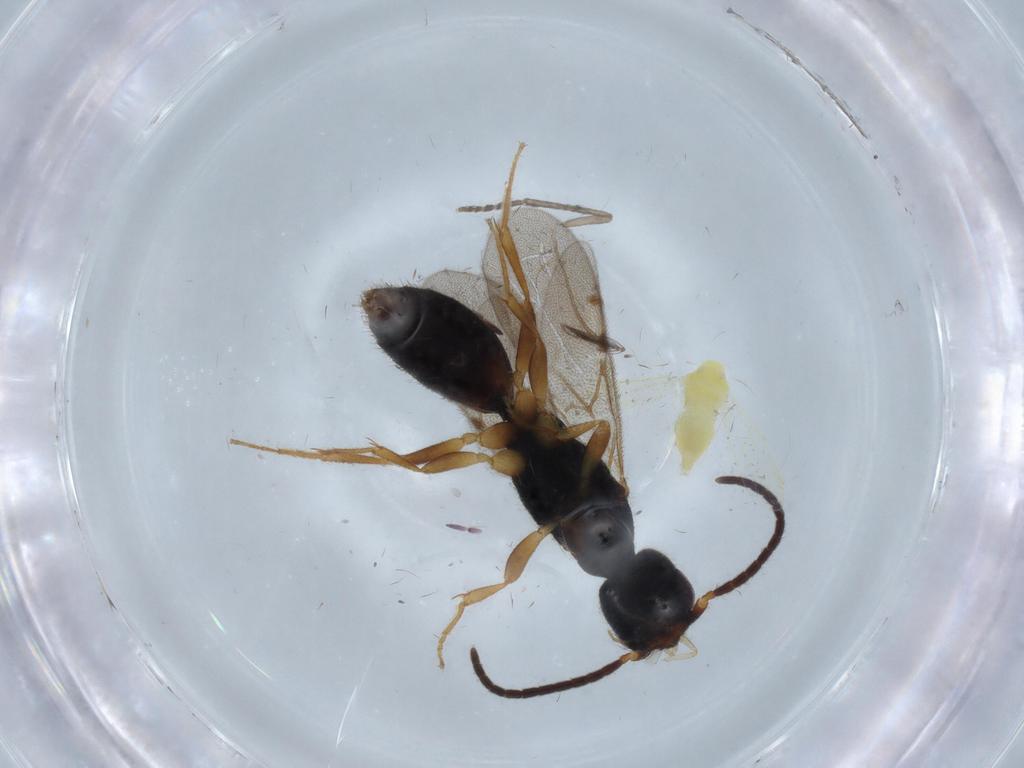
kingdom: Animalia
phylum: Arthropoda
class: Insecta
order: Diptera
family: Ceratopogonidae
